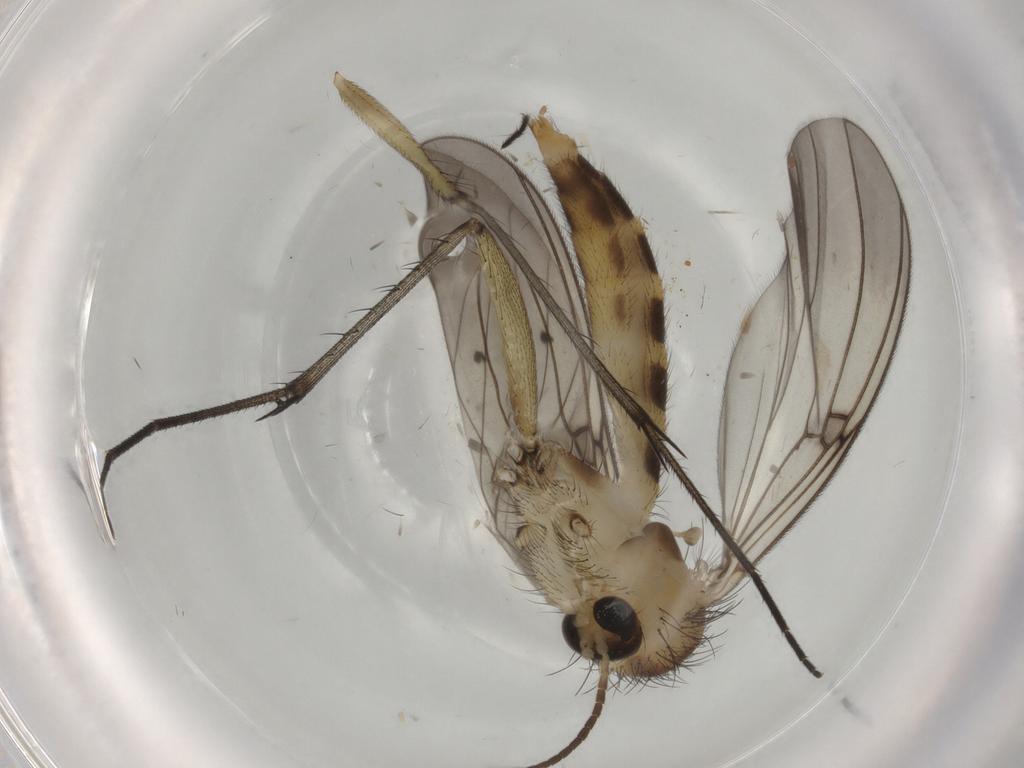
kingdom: Animalia
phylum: Arthropoda
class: Insecta
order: Diptera
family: Mycetophilidae
